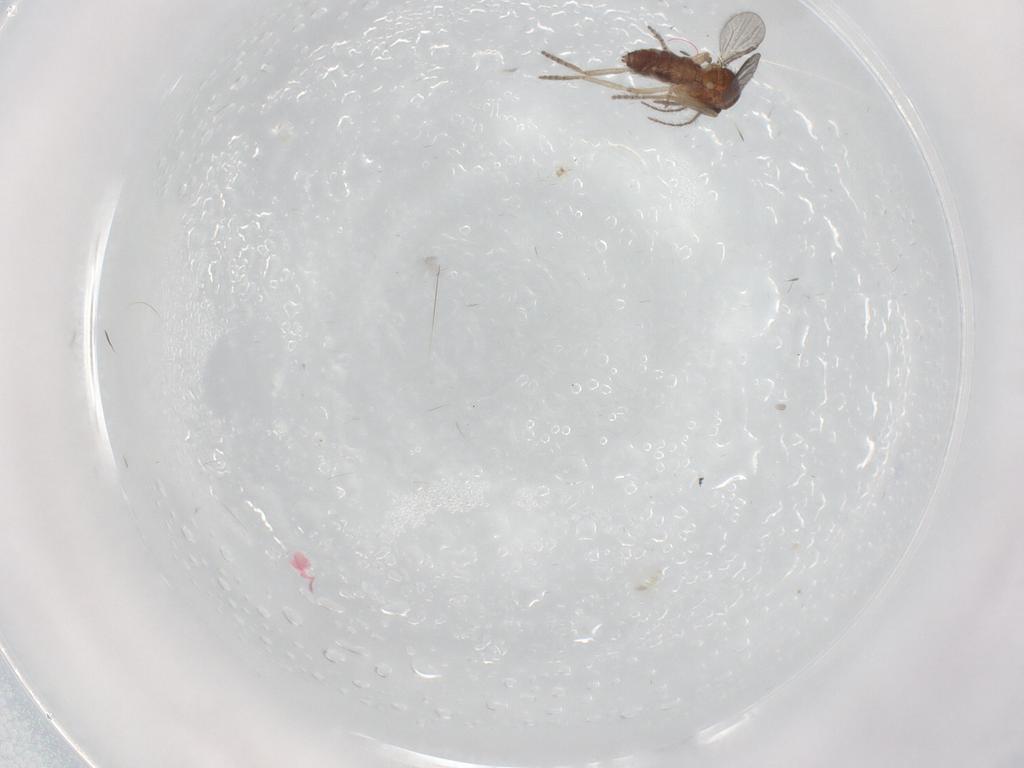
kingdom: Animalia
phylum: Arthropoda
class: Insecta
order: Diptera
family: Ceratopogonidae
